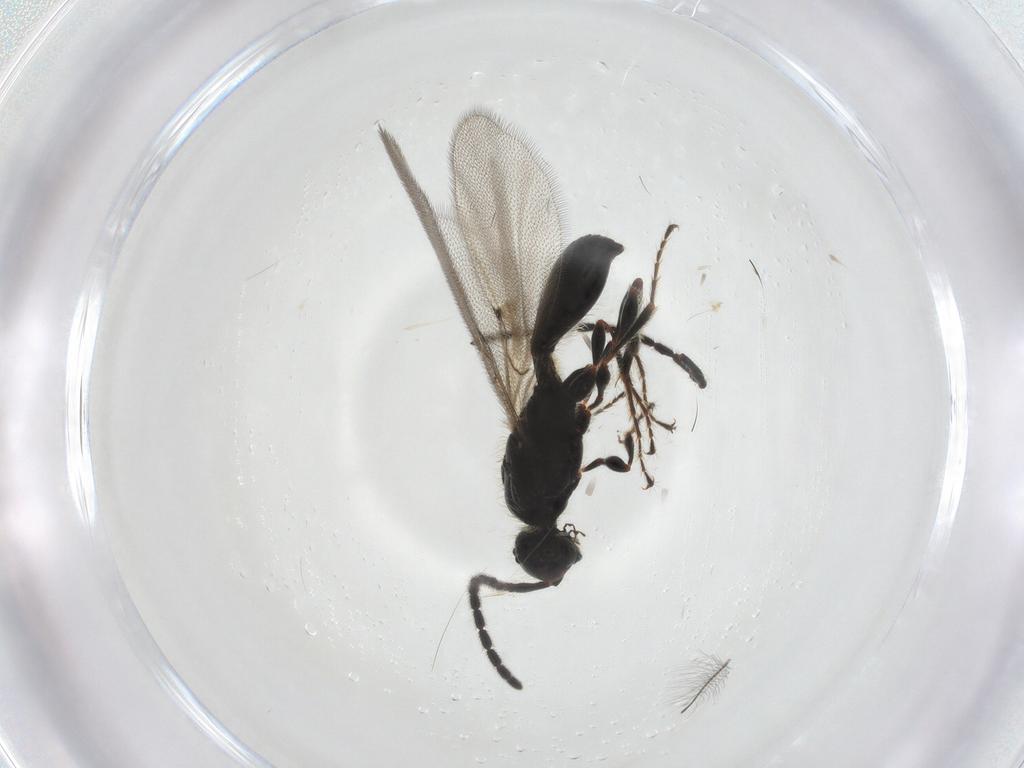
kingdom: Animalia
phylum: Arthropoda
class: Insecta
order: Hymenoptera
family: Diapriidae
